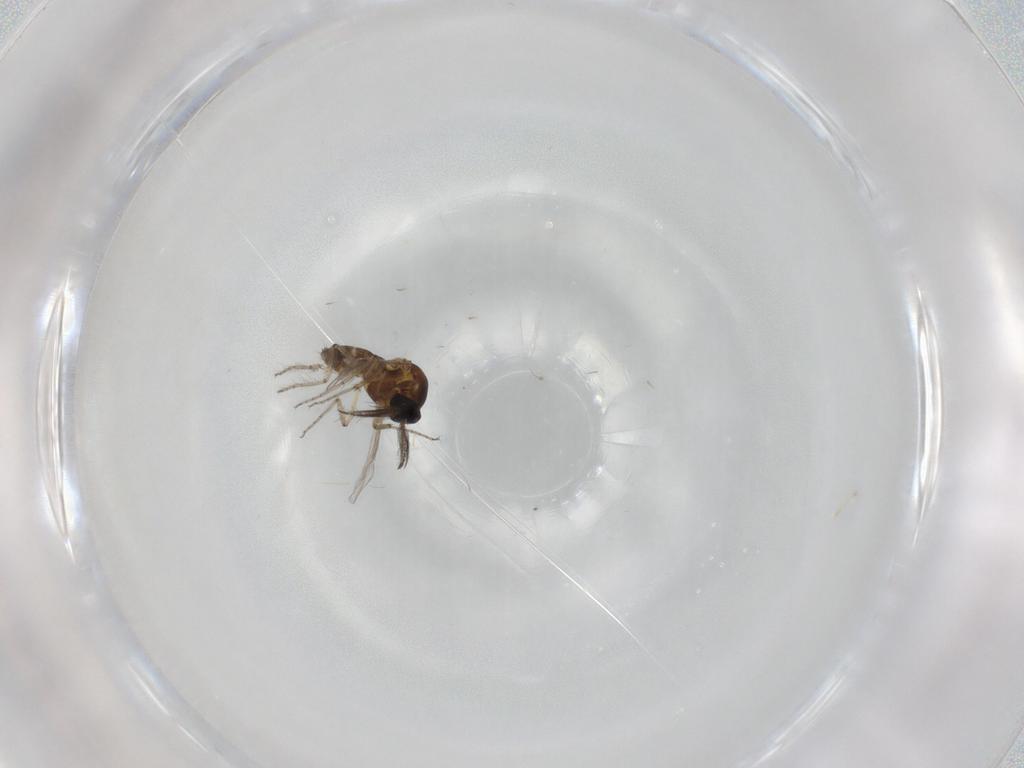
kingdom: Animalia
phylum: Arthropoda
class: Insecta
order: Diptera
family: Ceratopogonidae
